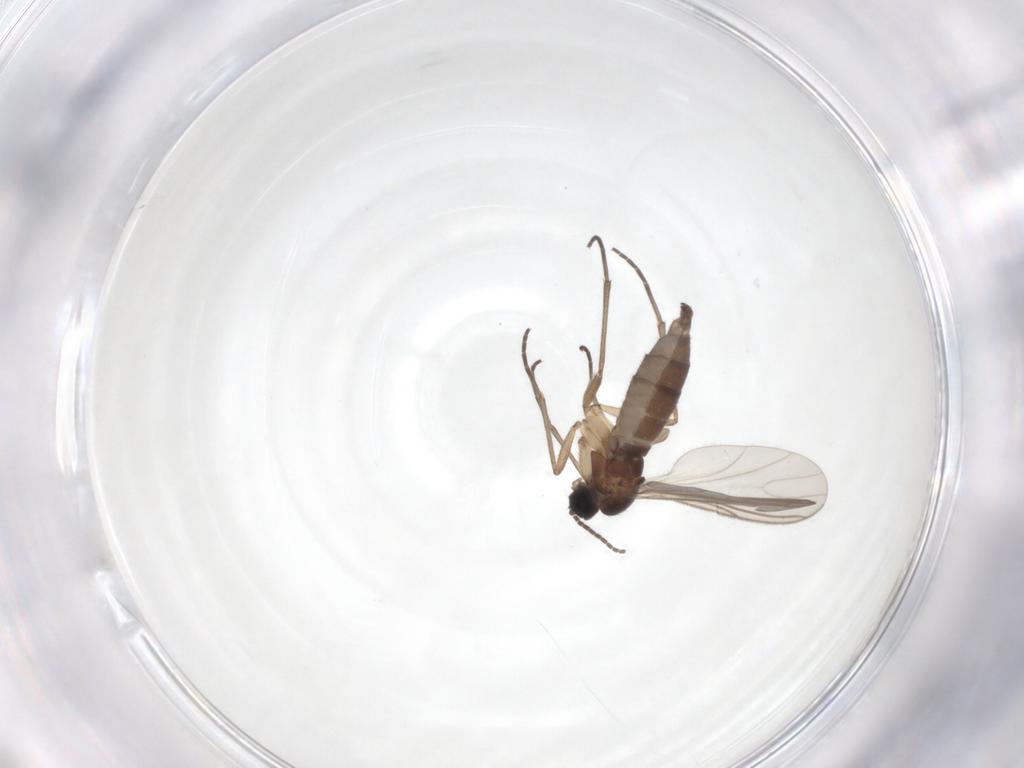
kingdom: Animalia
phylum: Arthropoda
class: Insecta
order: Diptera
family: Sciaridae
